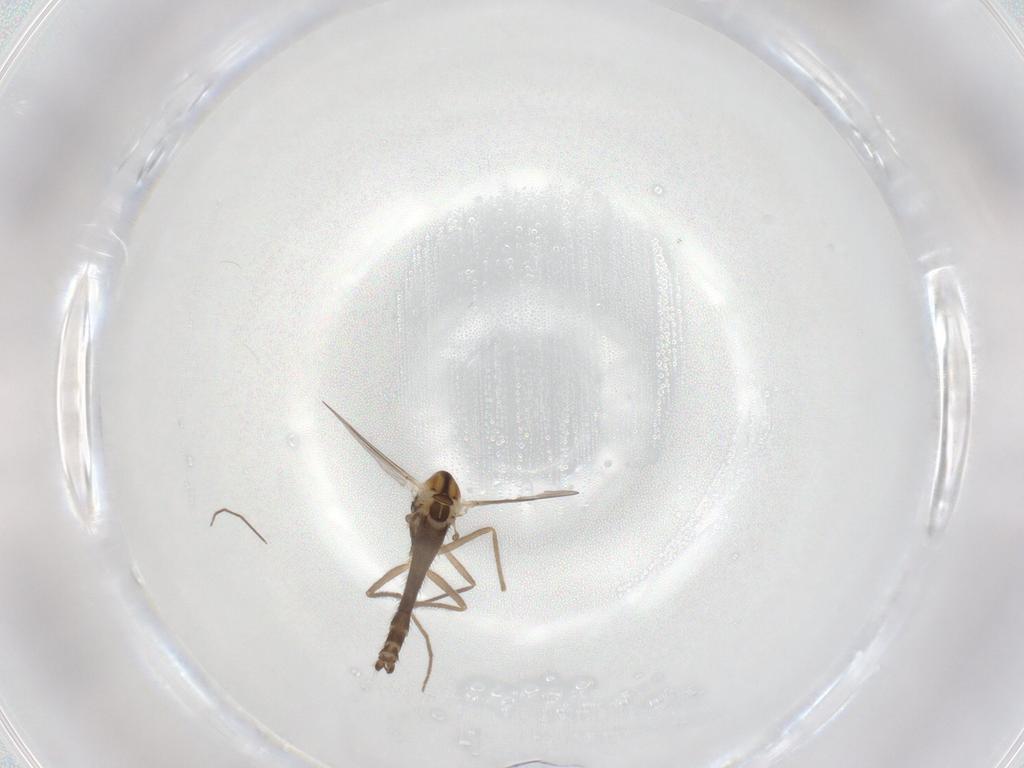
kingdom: Animalia
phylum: Arthropoda
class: Insecta
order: Diptera
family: Chironomidae
